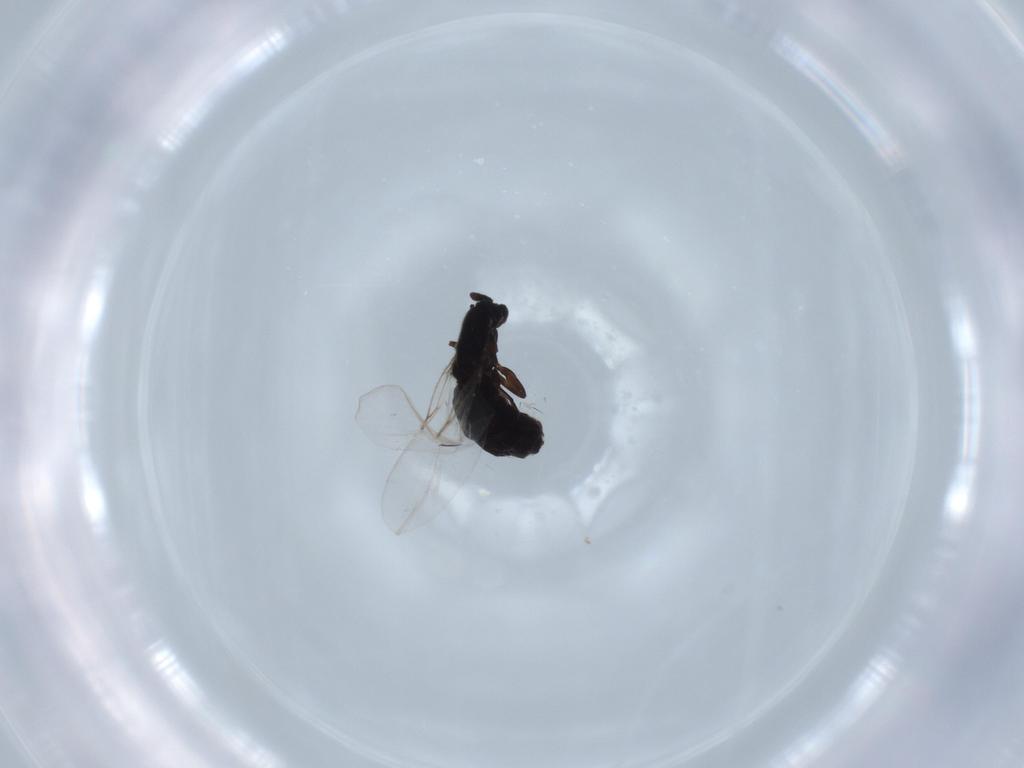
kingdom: Animalia
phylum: Arthropoda
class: Insecta
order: Diptera
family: Scatopsidae
